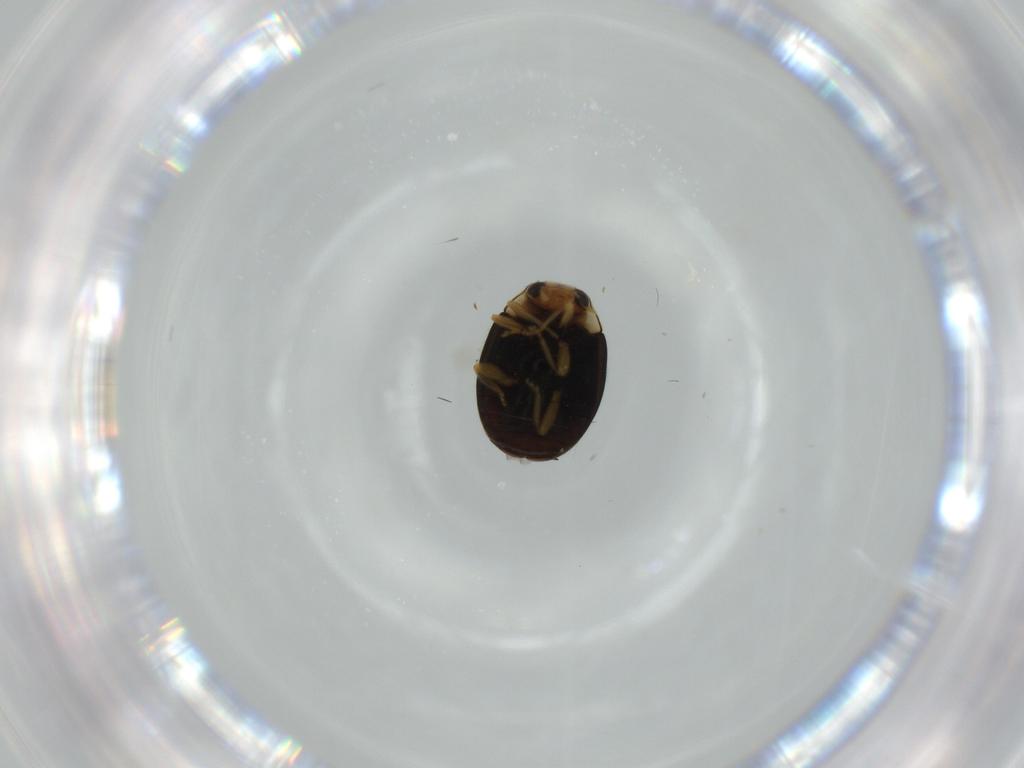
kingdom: Animalia
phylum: Arthropoda
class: Insecta
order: Coleoptera
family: Coccinellidae
